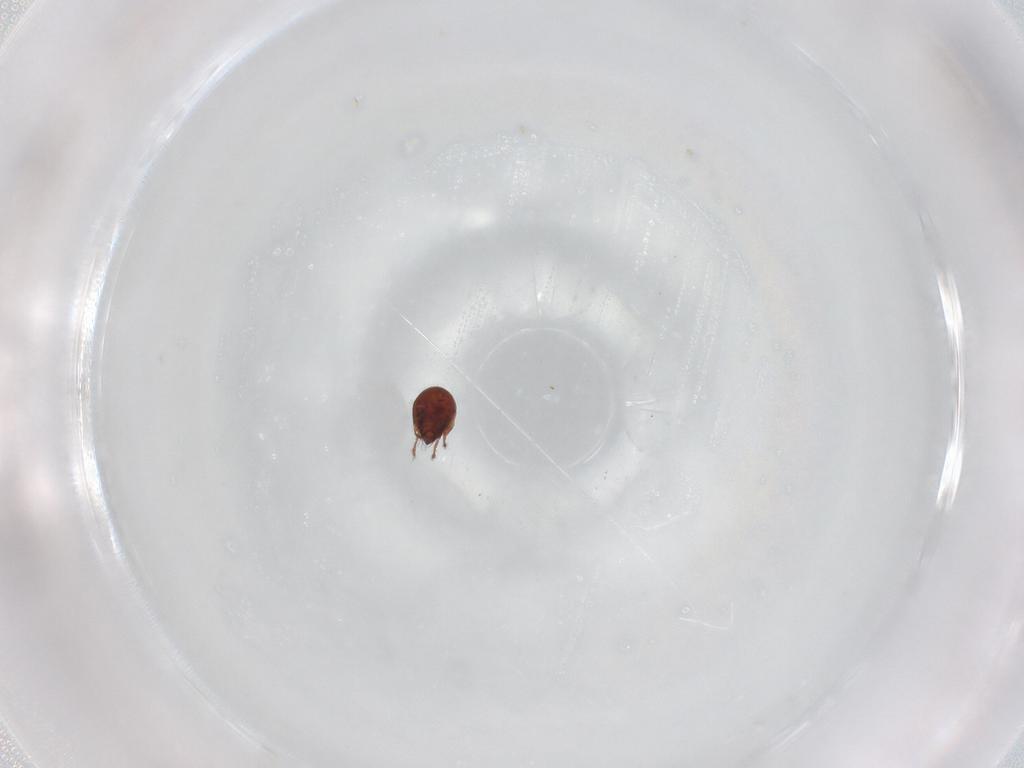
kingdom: Animalia
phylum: Arthropoda
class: Arachnida
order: Sarcoptiformes
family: Ceratozetidae
